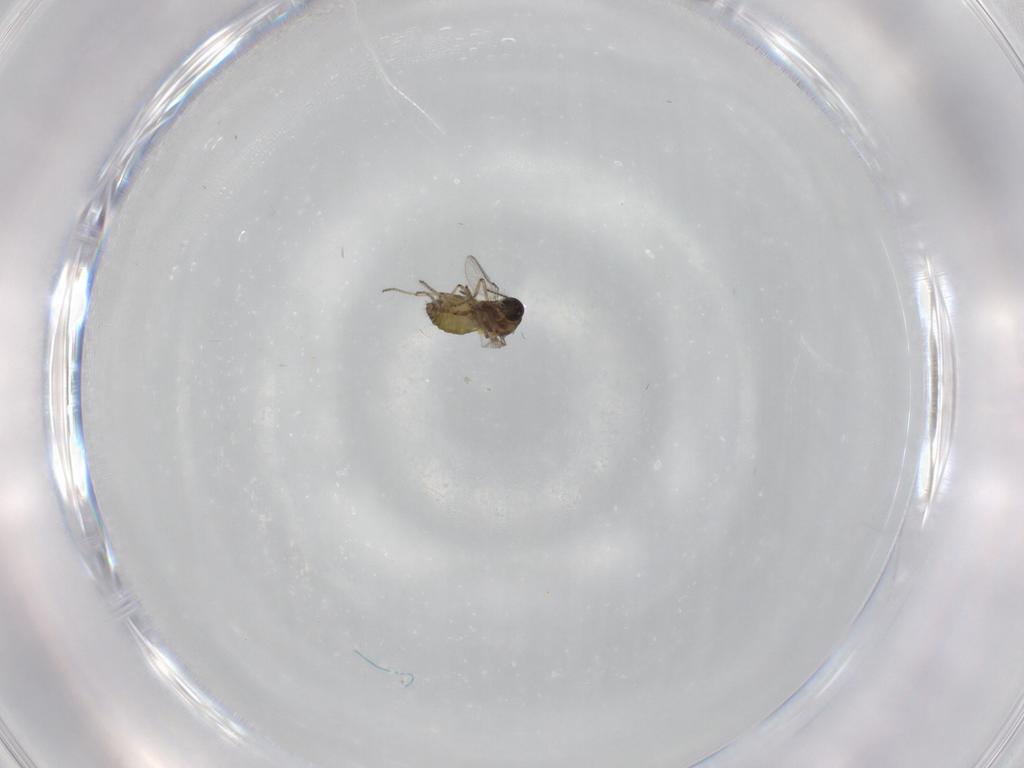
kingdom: Animalia
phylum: Arthropoda
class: Insecta
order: Diptera
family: Ceratopogonidae
